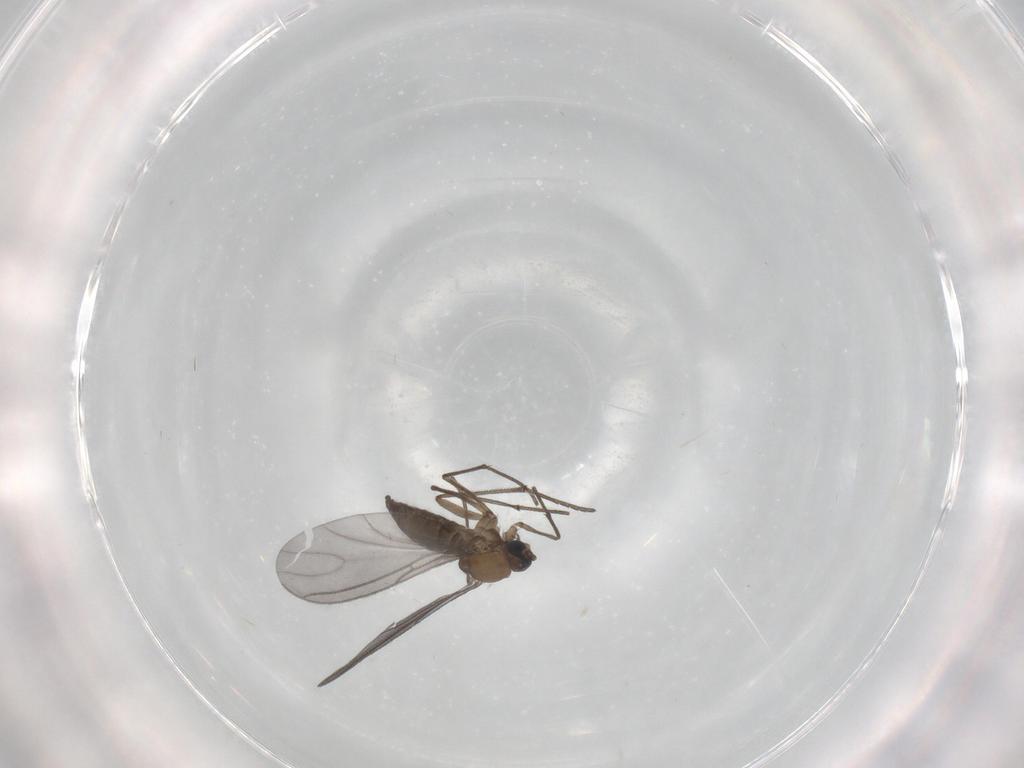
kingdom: Animalia
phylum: Arthropoda
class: Insecta
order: Diptera
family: Sciaridae
